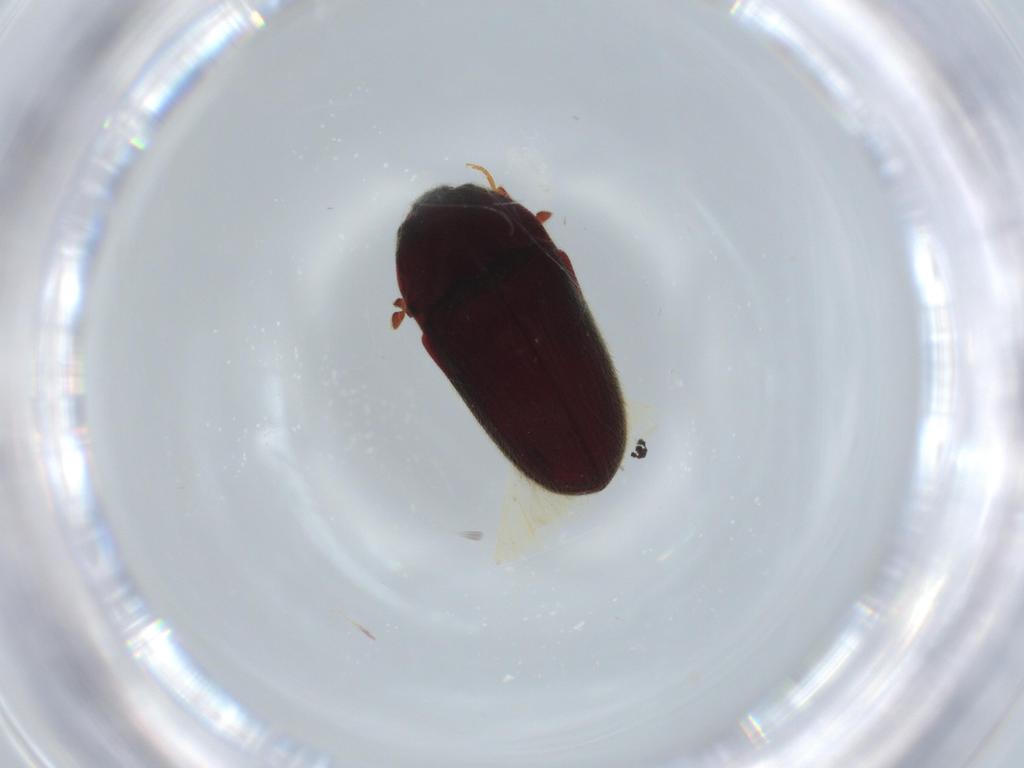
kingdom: Animalia
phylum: Arthropoda
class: Insecta
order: Coleoptera
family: Throscidae
